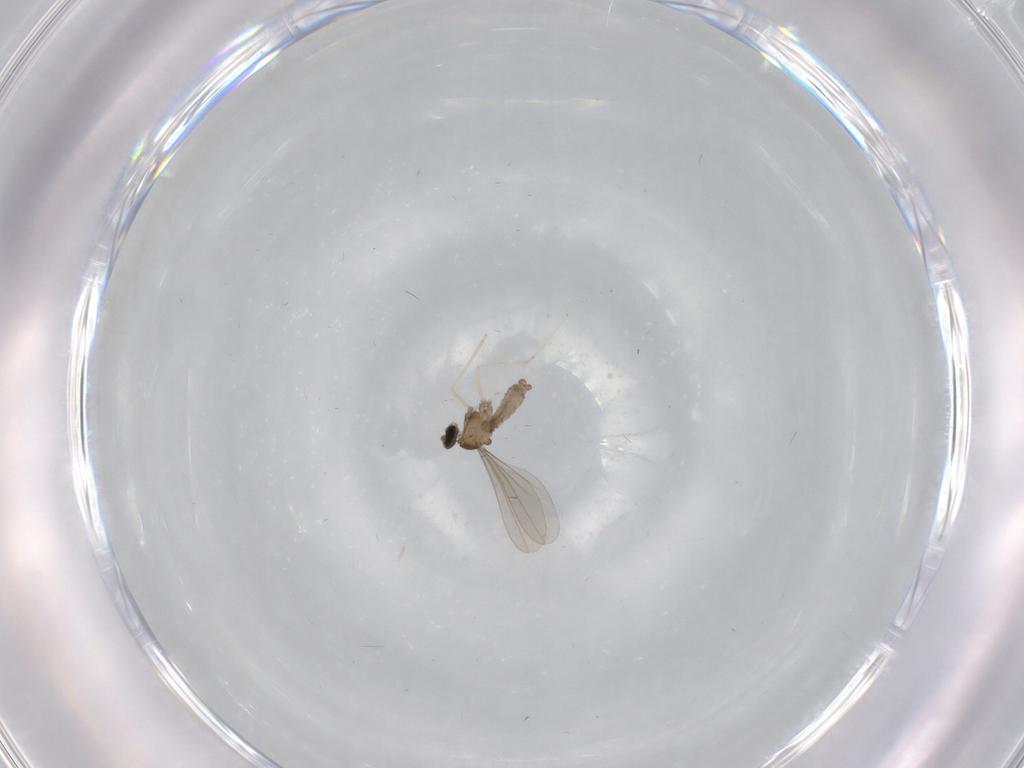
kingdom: Animalia
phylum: Arthropoda
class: Insecta
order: Diptera
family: Cecidomyiidae
